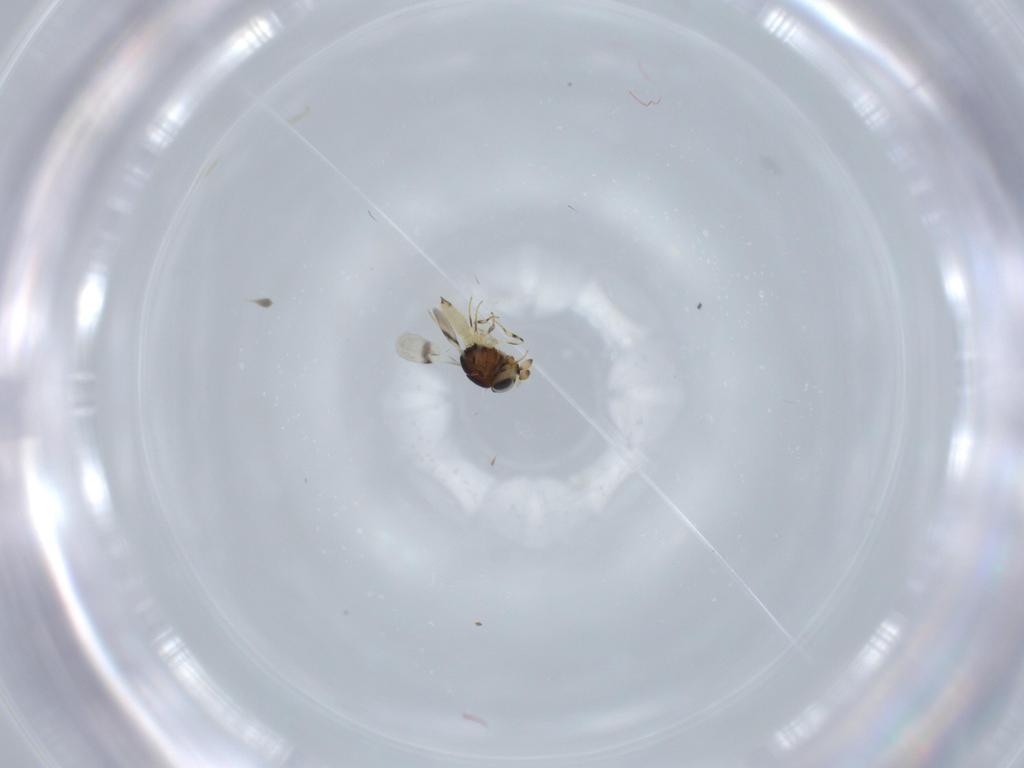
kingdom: Animalia
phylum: Arthropoda
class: Insecta
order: Hymenoptera
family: Scelionidae
